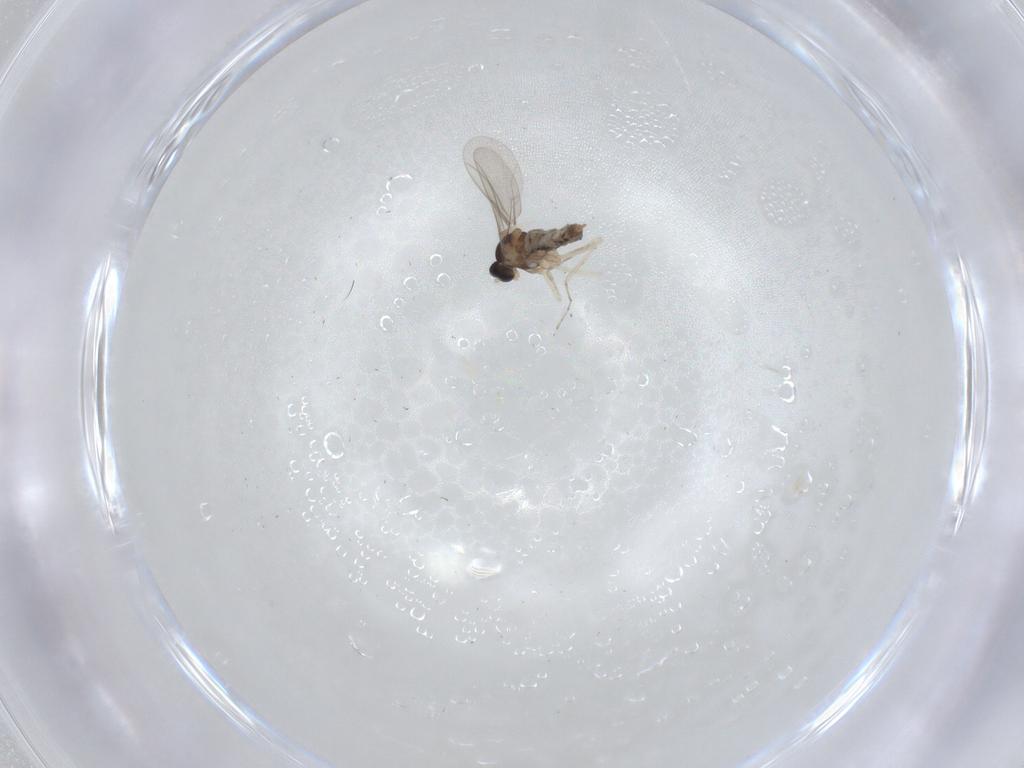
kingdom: Animalia
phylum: Arthropoda
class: Insecta
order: Diptera
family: Cecidomyiidae
